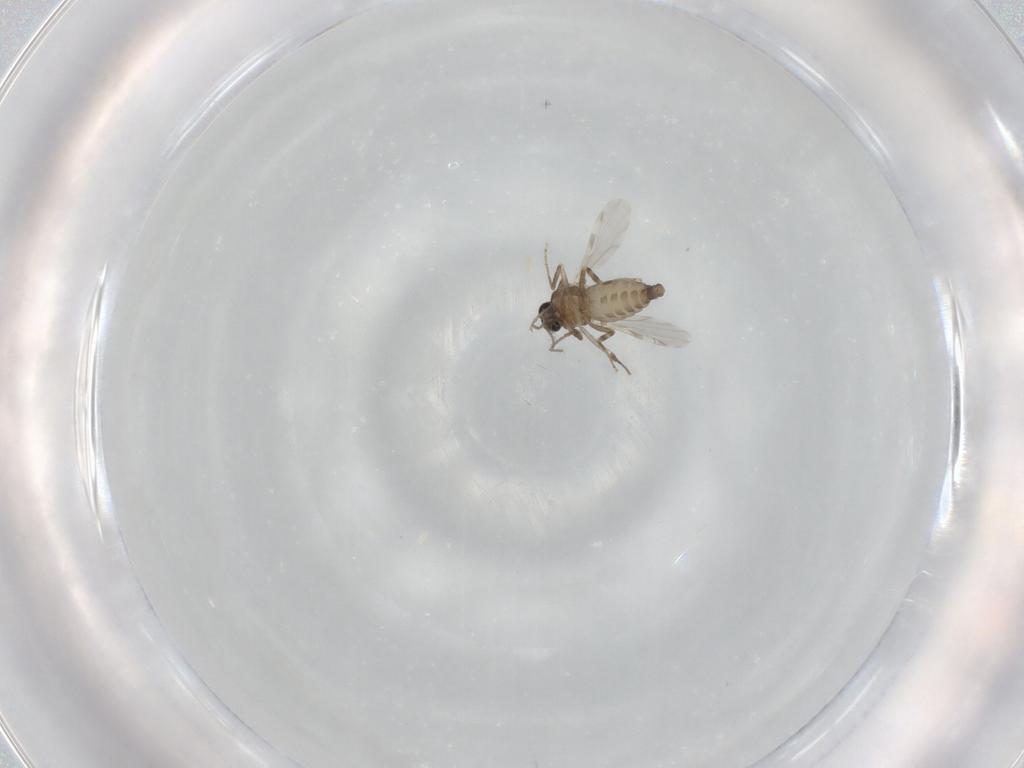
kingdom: Animalia
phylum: Arthropoda
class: Insecta
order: Diptera
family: Ceratopogonidae
